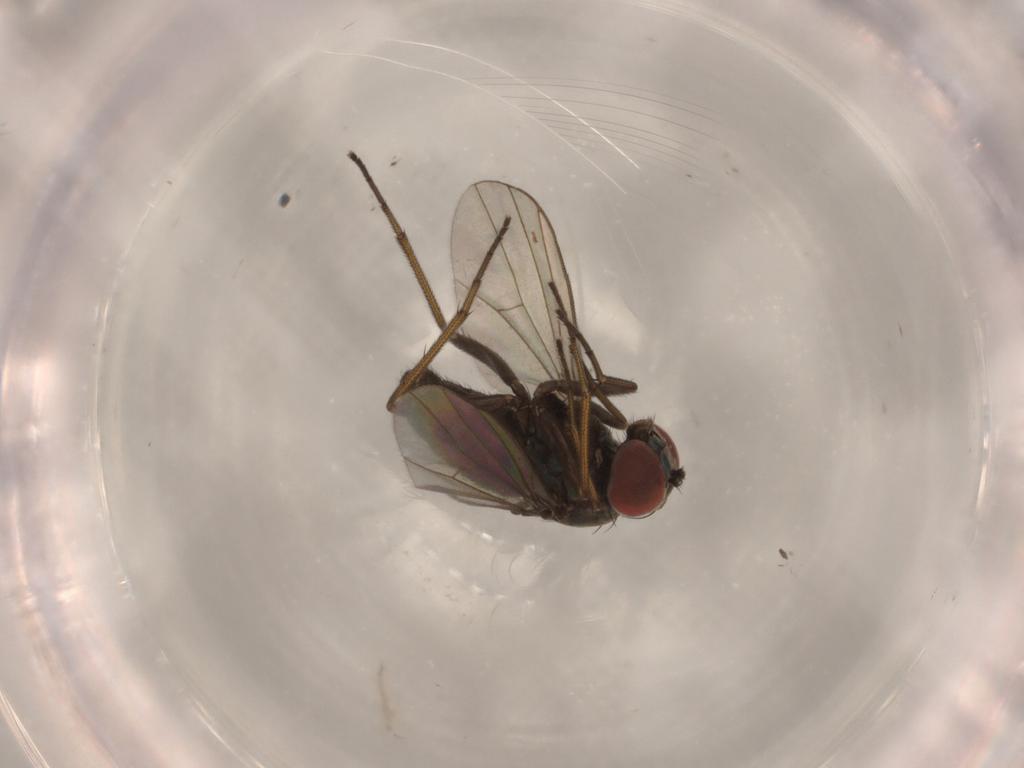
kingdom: Animalia
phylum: Arthropoda
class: Insecta
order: Diptera
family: Dolichopodidae
